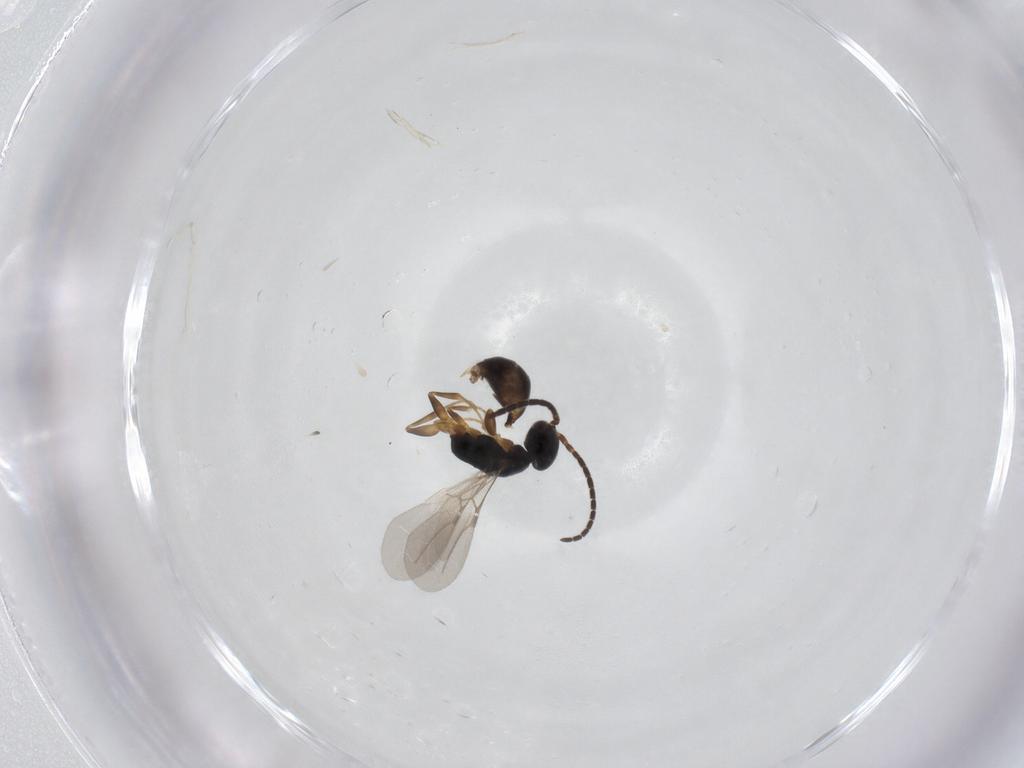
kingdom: Animalia
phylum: Arthropoda
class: Insecta
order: Hymenoptera
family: Formicidae
